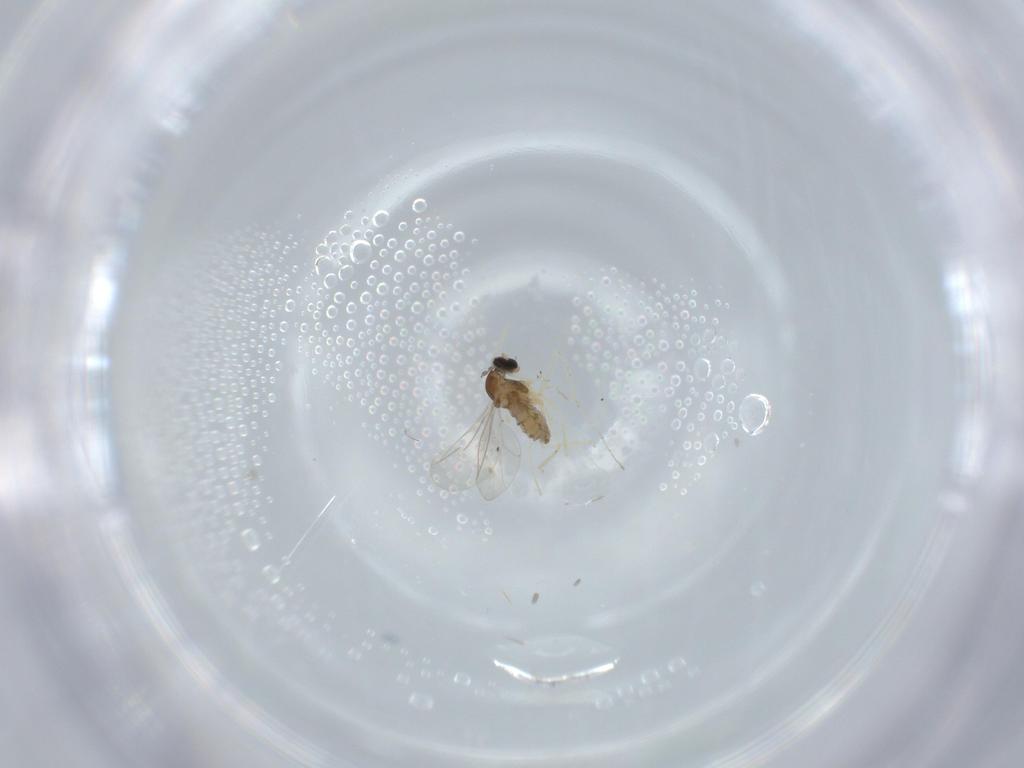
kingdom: Animalia
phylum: Arthropoda
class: Insecta
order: Diptera
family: Cecidomyiidae
